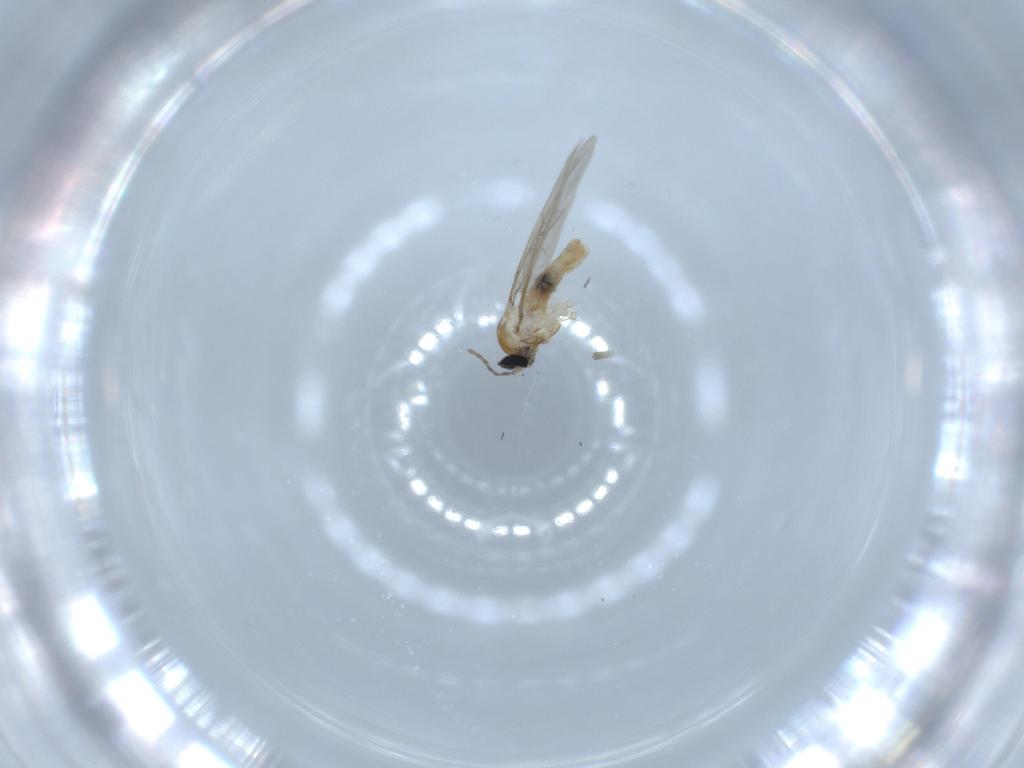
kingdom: Animalia
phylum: Arthropoda
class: Insecta
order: Diptera
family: Cecidomyiidae
